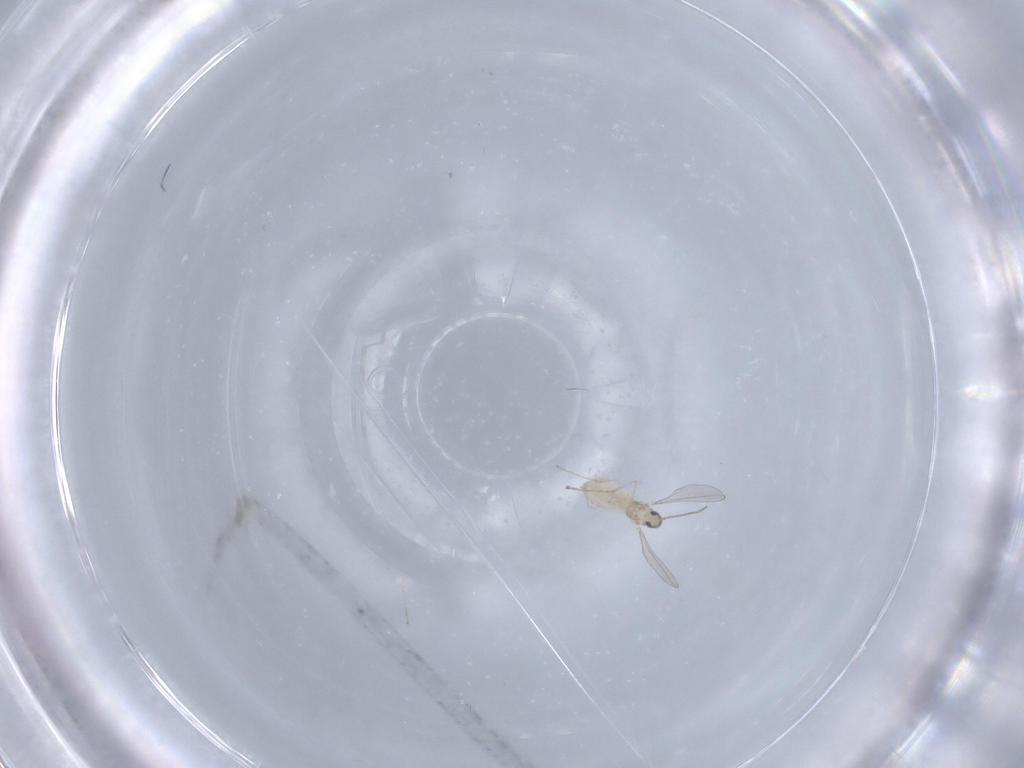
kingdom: Animalia
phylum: Arthropoda
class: Insecta
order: Diptera
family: Cecidomyiidae
